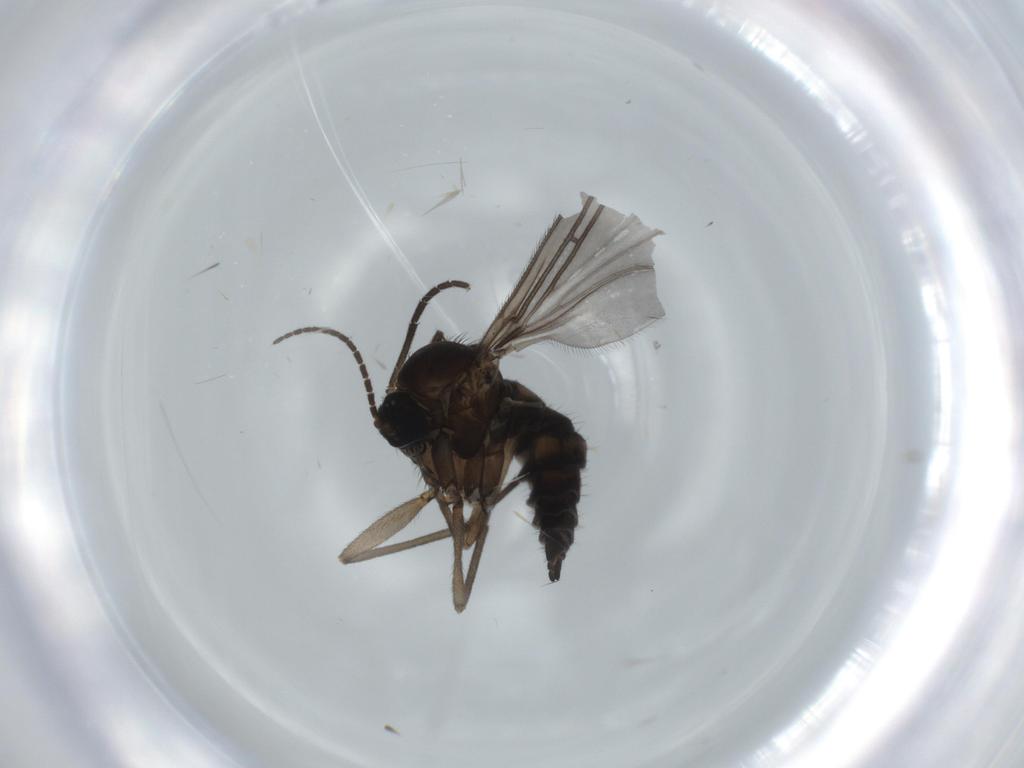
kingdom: Animalia
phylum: Arthropoda
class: Insecta
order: Diptera
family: Sciaridae
